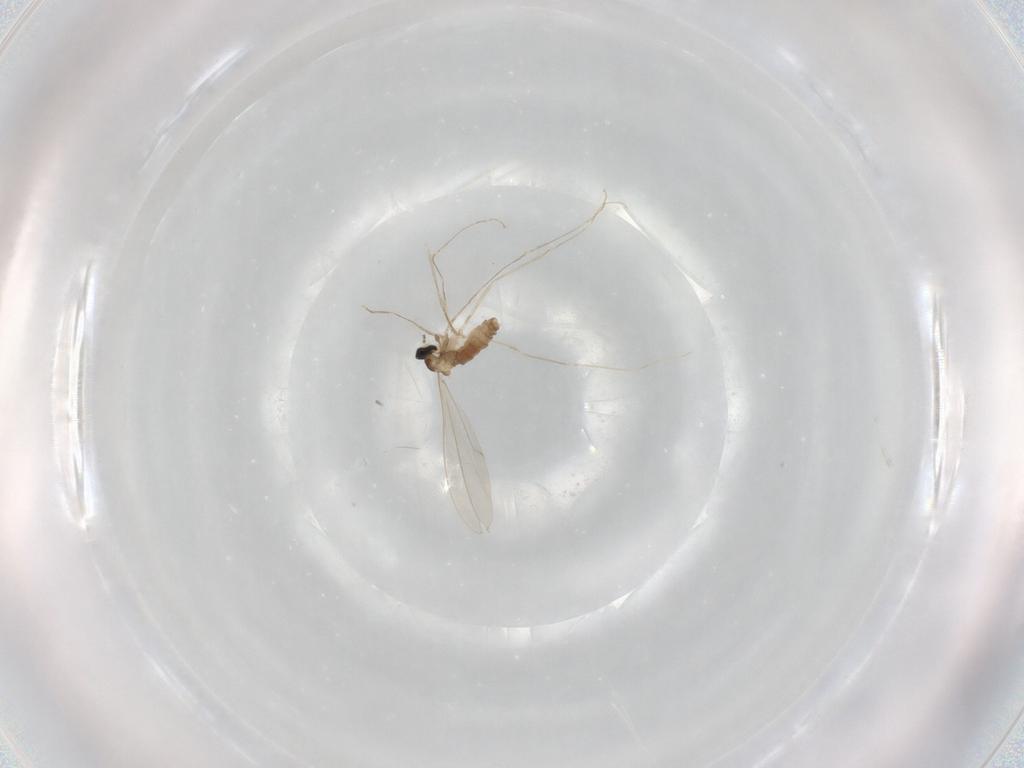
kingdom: Animalia
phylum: Arthropoda
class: Insecta
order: Diptera
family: Cecidomyiidae
